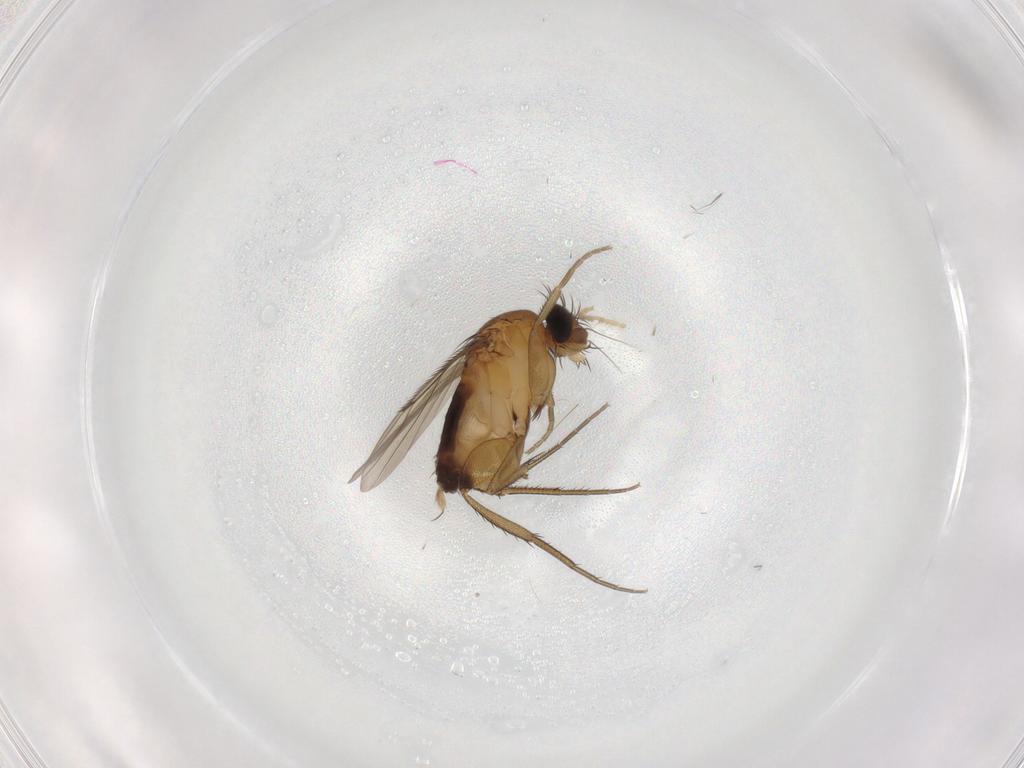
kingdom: Animalia
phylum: Arthropoda
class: Insecta
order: Diptera
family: Phoridae
